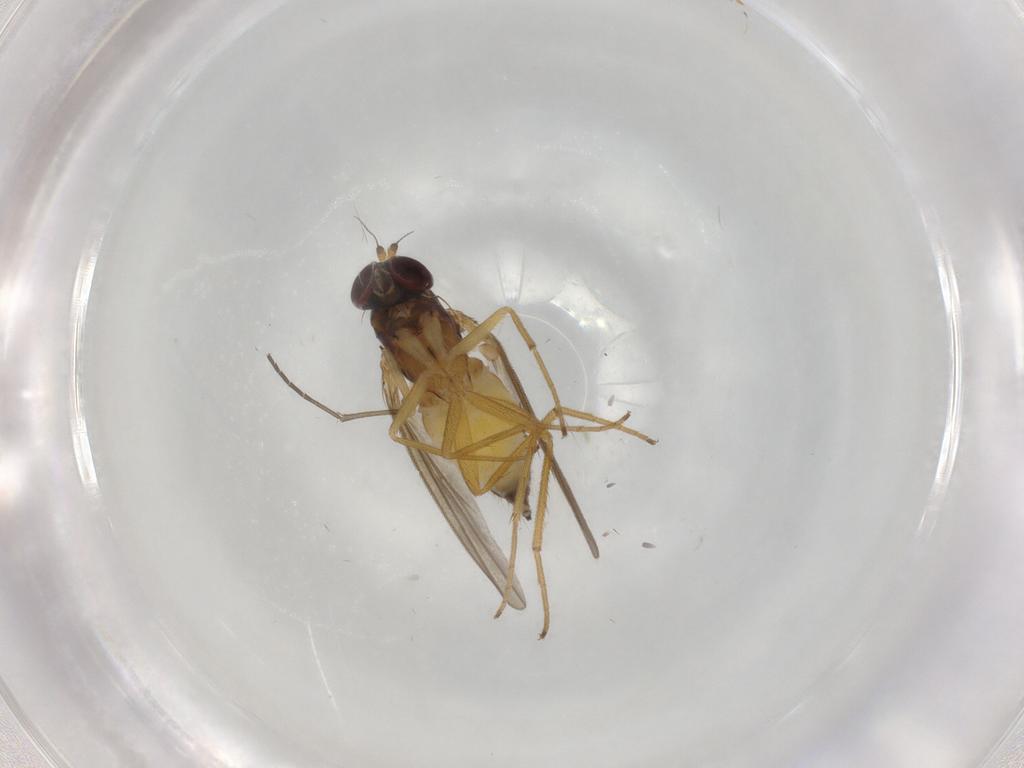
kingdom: Animalia
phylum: Arthropoda
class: Insecta
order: Diptera
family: Dolichopodidae
